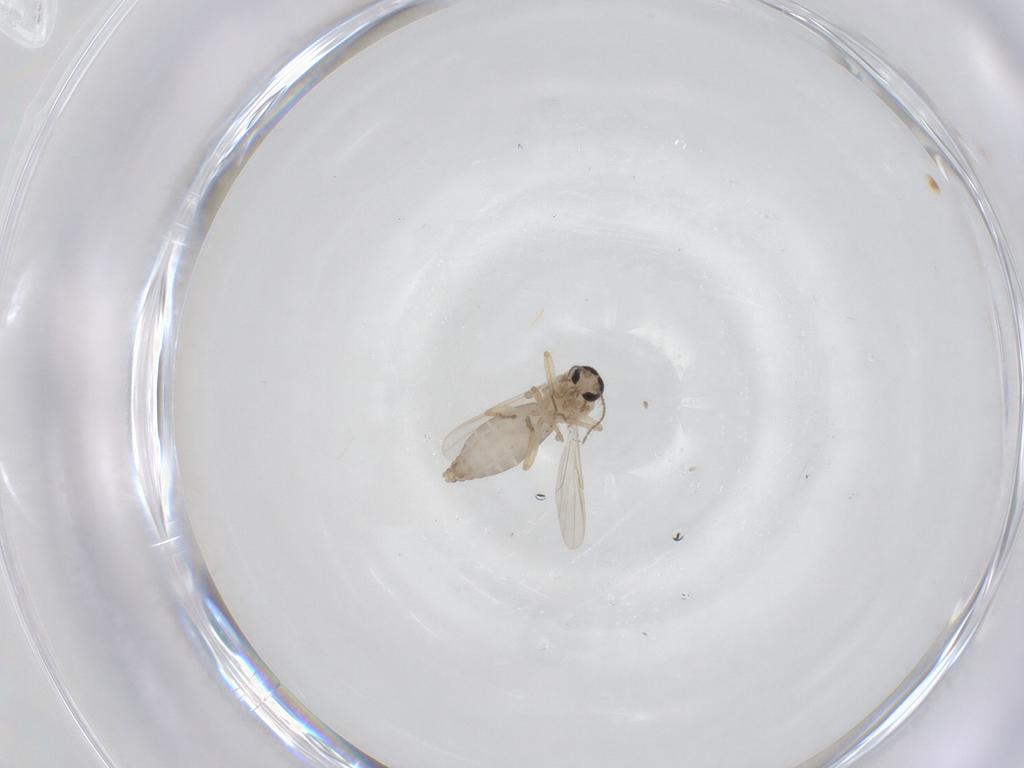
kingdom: Animalia
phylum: Arthropoda
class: Insecta
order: Diptera
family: Ceratopogonidae
